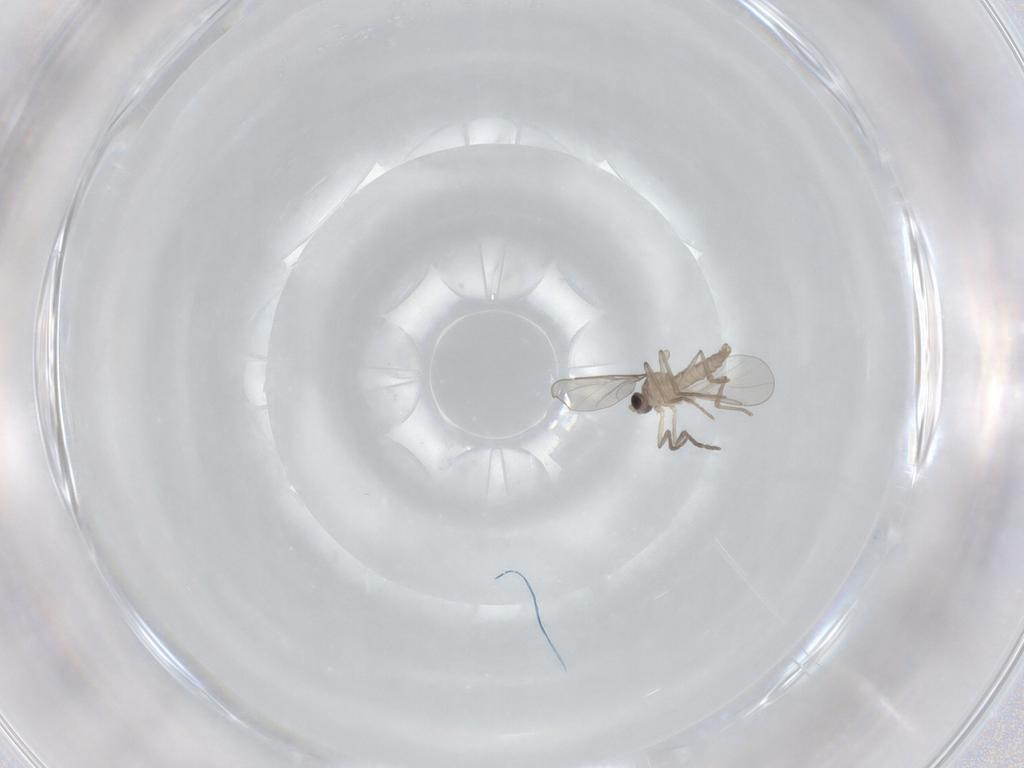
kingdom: Animalia
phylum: Arthropoda
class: Insecta
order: Diptera
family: Cecidomyiidae
